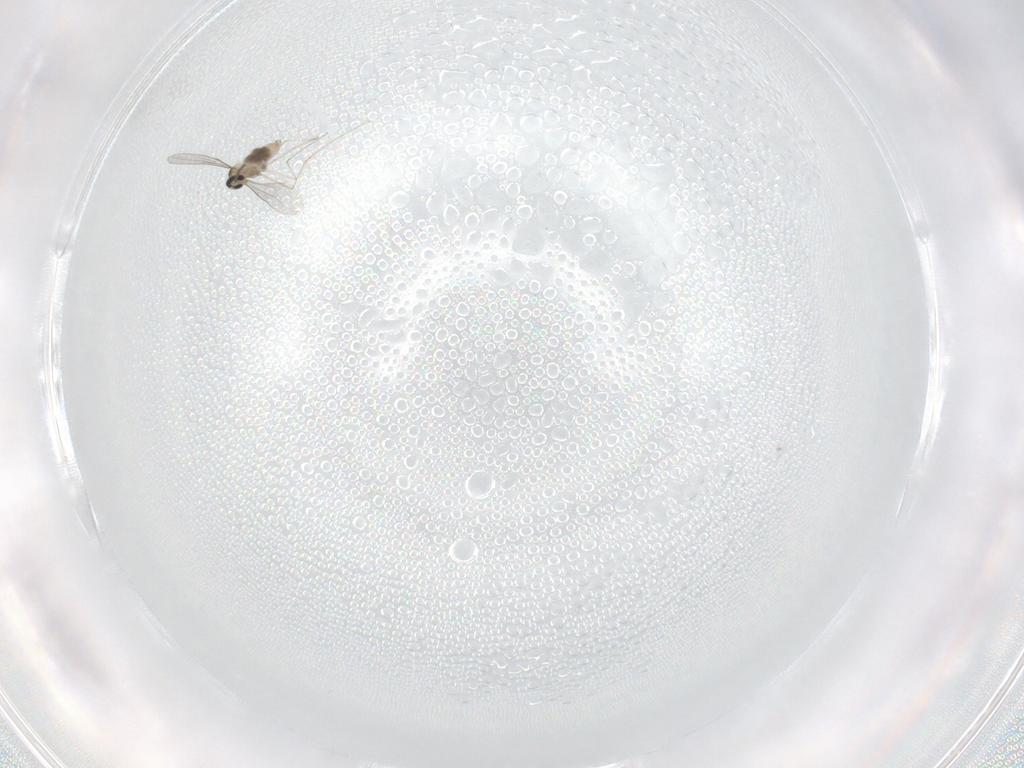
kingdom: Animalia
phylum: Arthropoda
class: Insecta
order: Diptera
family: Cecidomyiidae
